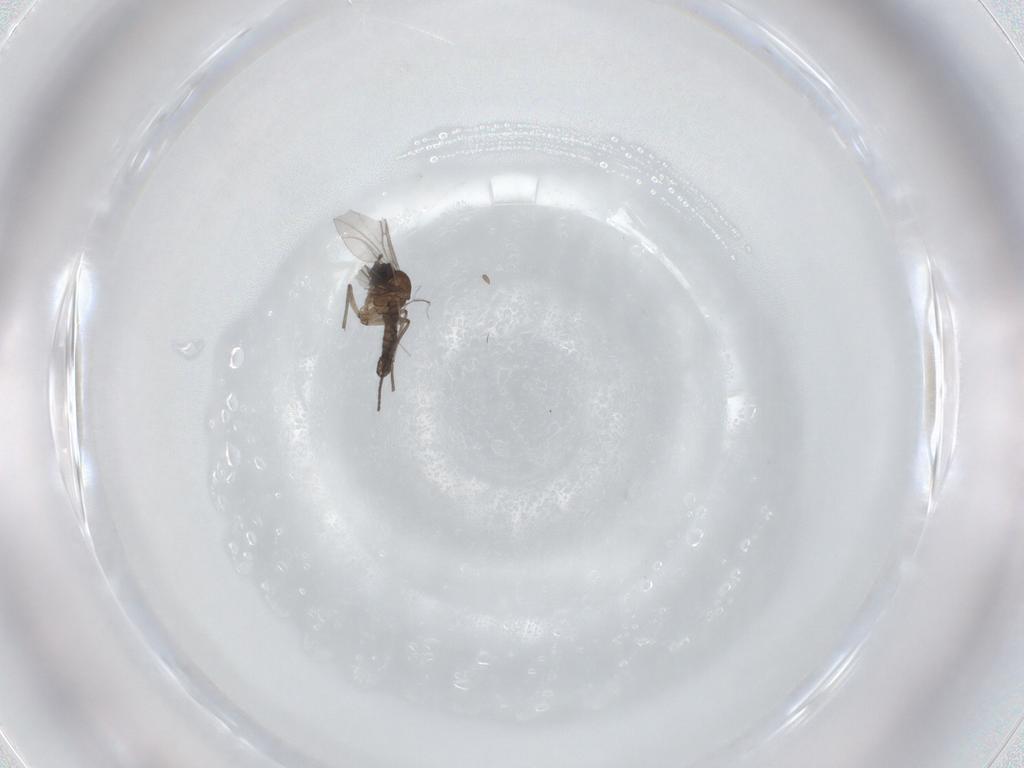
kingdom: Animalia
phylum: Arthropoda
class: Insecta
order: Diptera
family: Sciaridae
